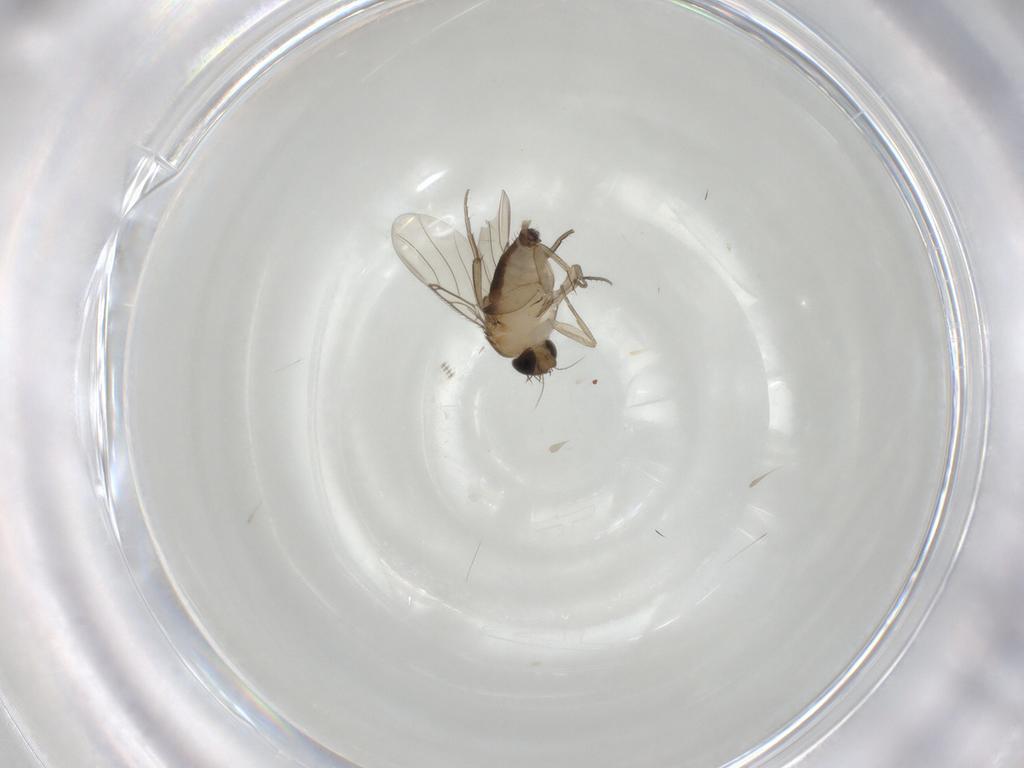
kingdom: Animalia
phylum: Arthropoda
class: Insecta
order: Diptera
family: Phoridae
